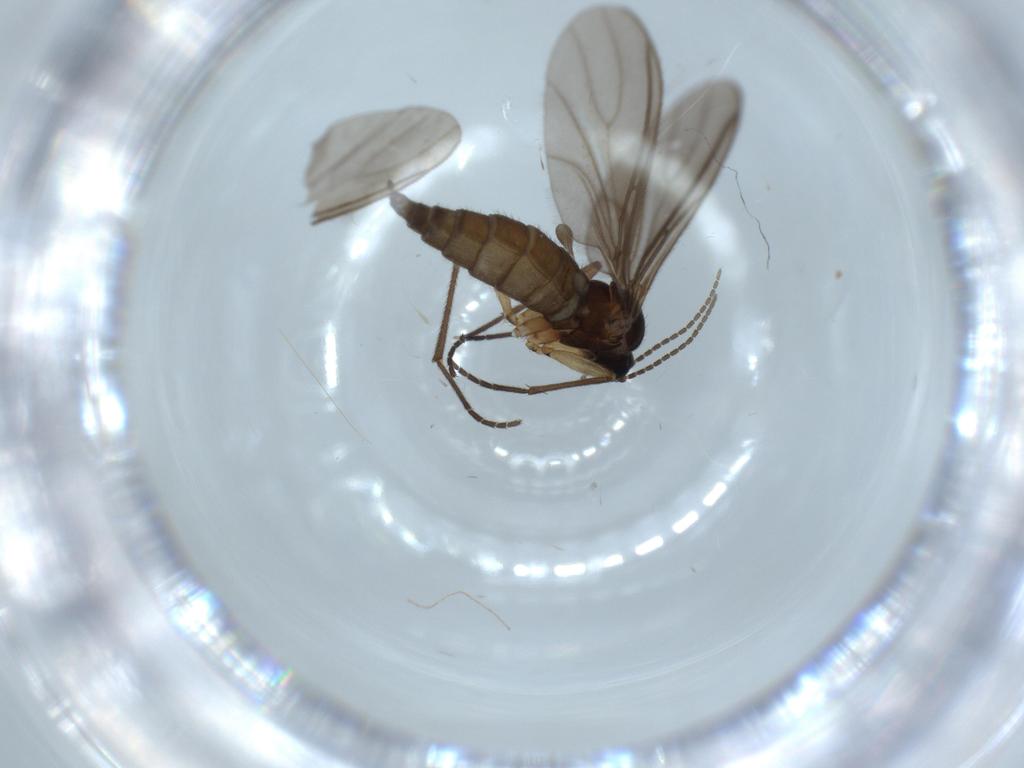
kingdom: Animalia
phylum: Arthropoda
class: Insecta
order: Diptera
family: Sciaridae
